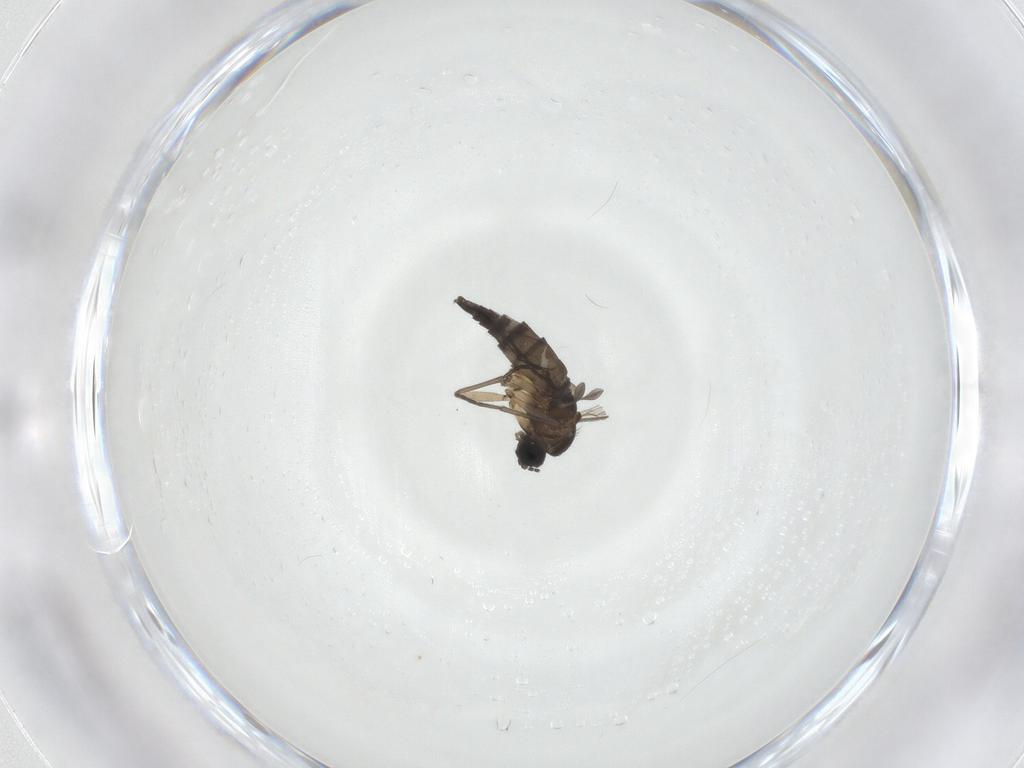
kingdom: Animalia
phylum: Arthropoda
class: Insecta
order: Diptera
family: Sciaridae
